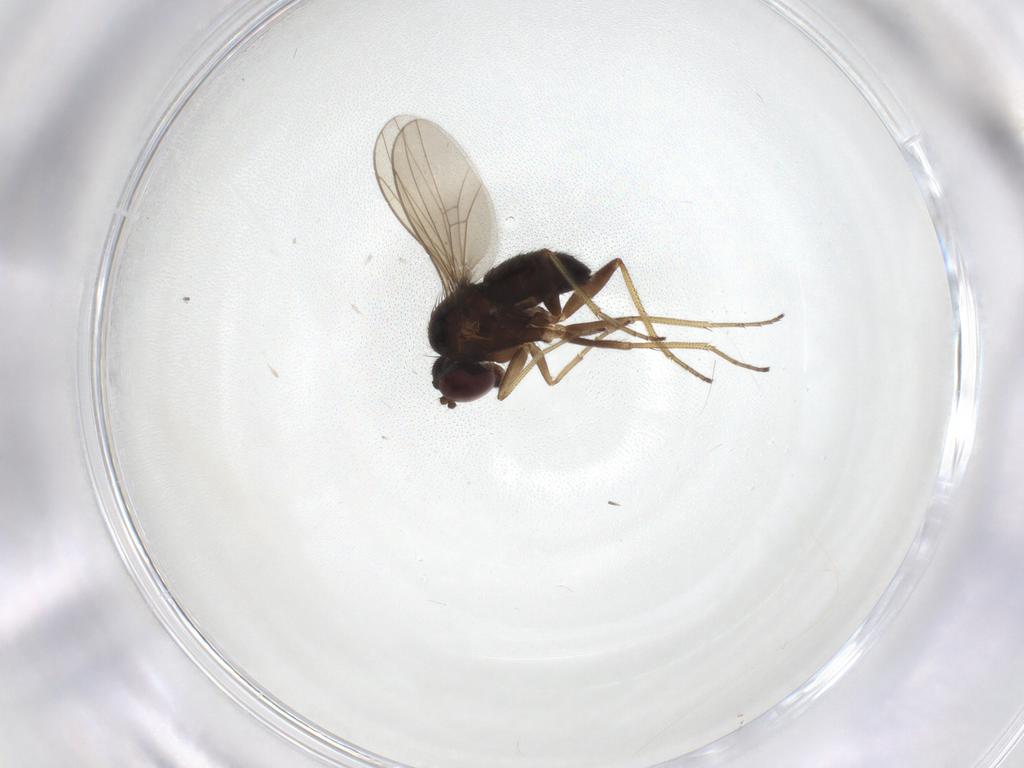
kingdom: Animalia
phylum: Arthropoda
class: Insecta
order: Diptera
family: Dolichopodidae
